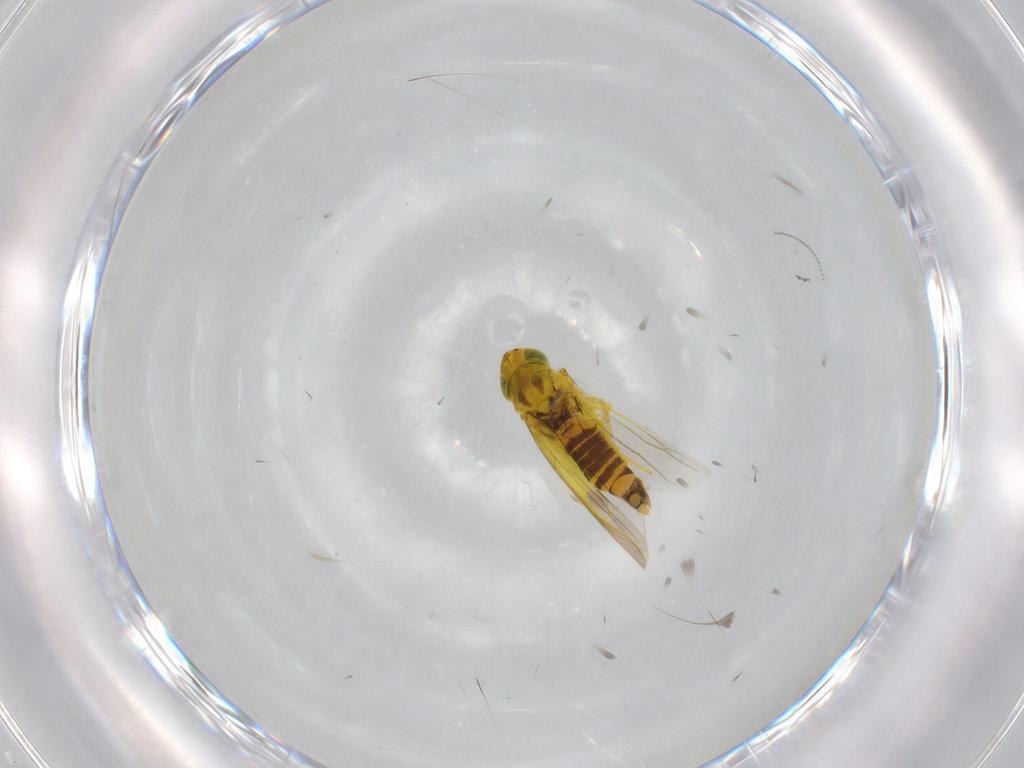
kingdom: Animalia
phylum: Arthropoda
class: Insecta
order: Hemiptera
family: Cicadellidae
